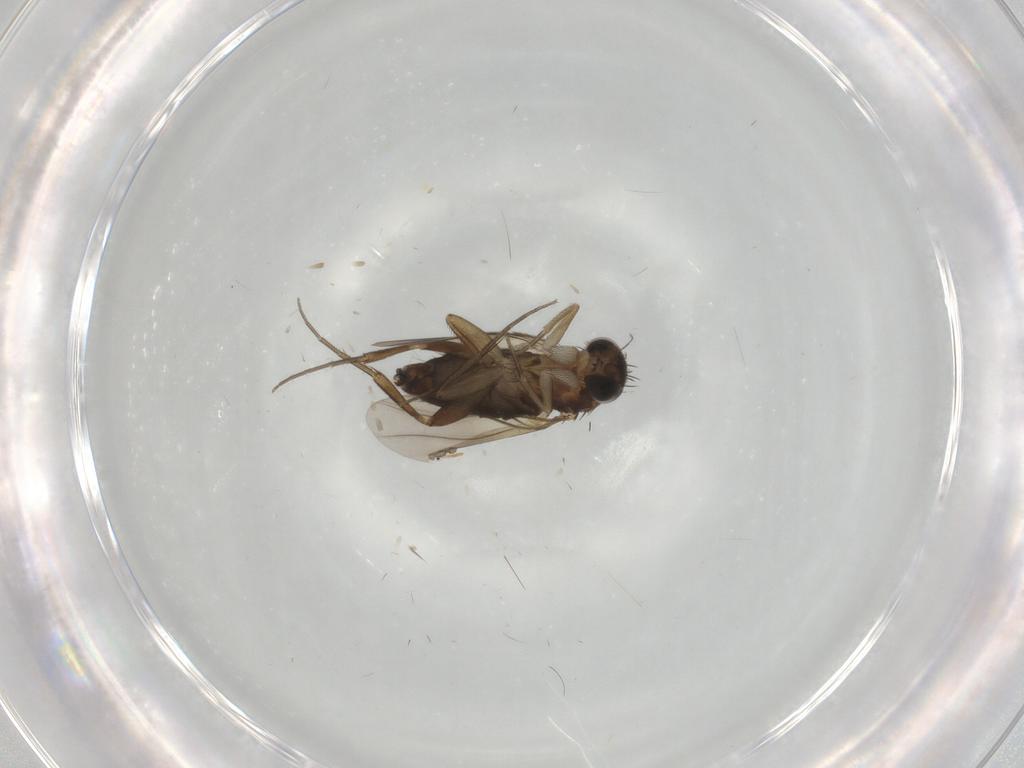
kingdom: Animalia
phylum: Arthropoda
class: Insecta
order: Diptera
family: Phoridae
